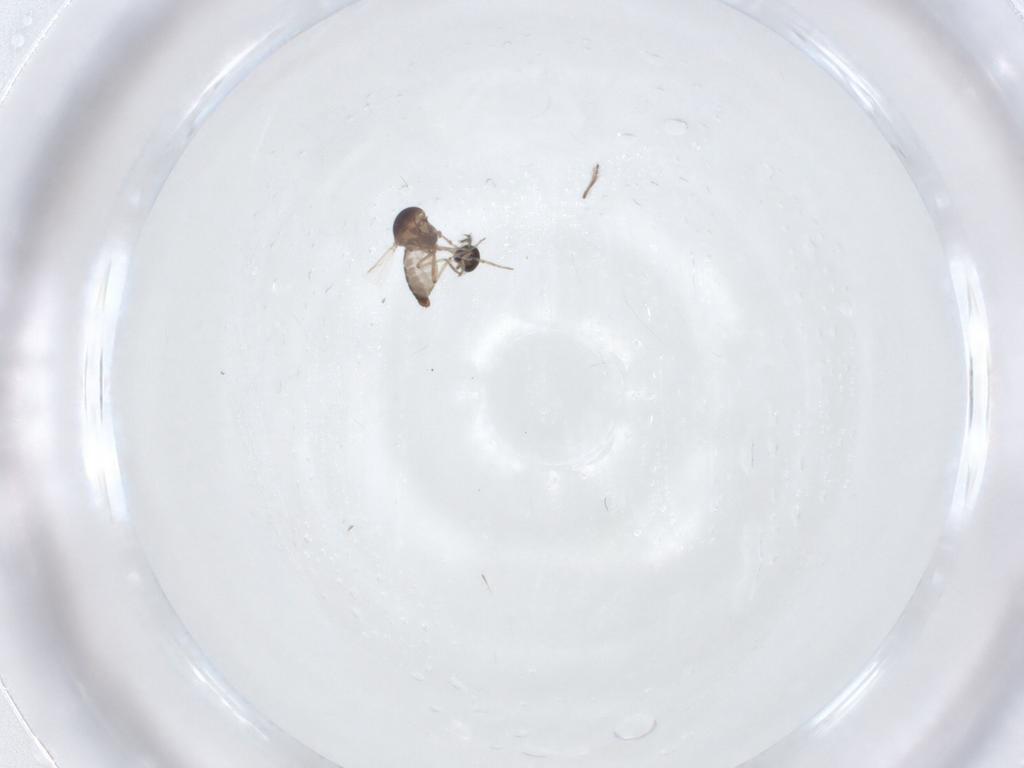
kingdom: Animalia
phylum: Arthropoda
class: Insecta
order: Diptera
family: Ceratopogonidae
